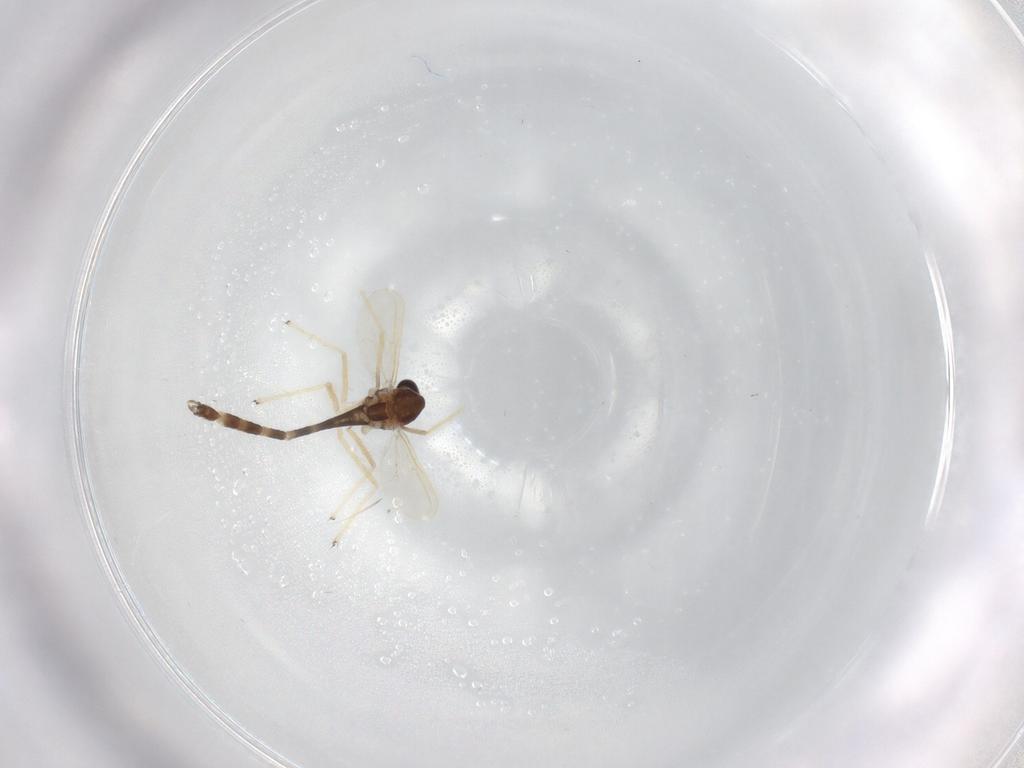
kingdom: Animalia
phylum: Arthropoda
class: Insecta
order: Diptera
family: Chironomidae
